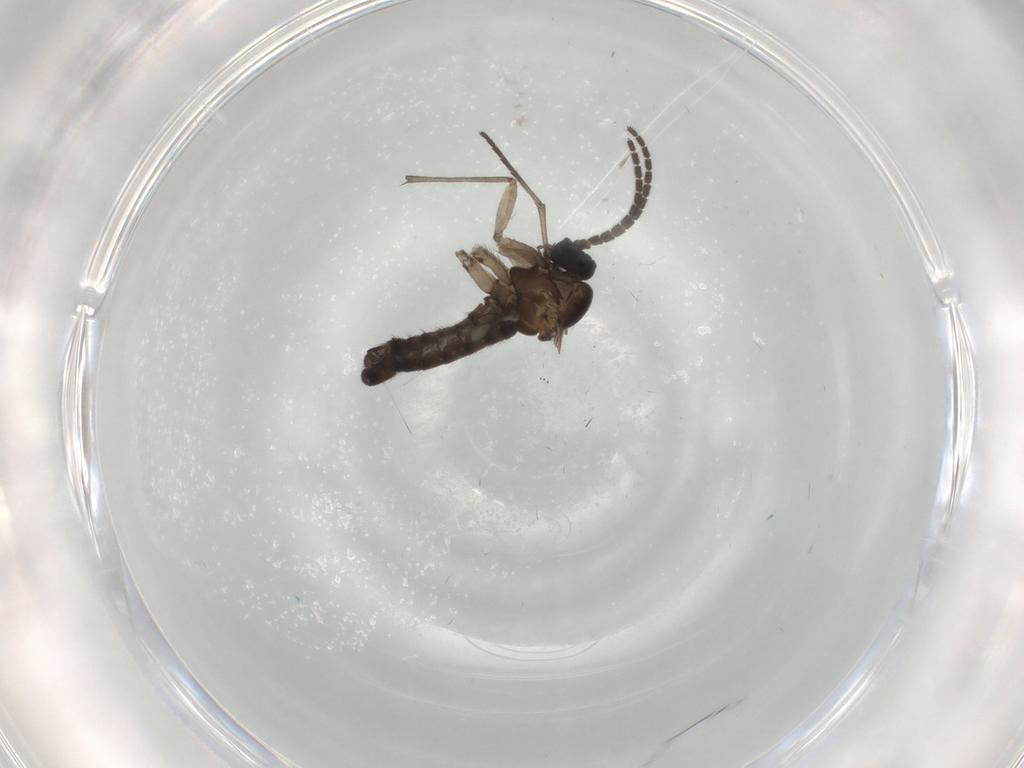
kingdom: Animalia
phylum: Arthropoda
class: Insecta
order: Diptera
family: Sciaridae
